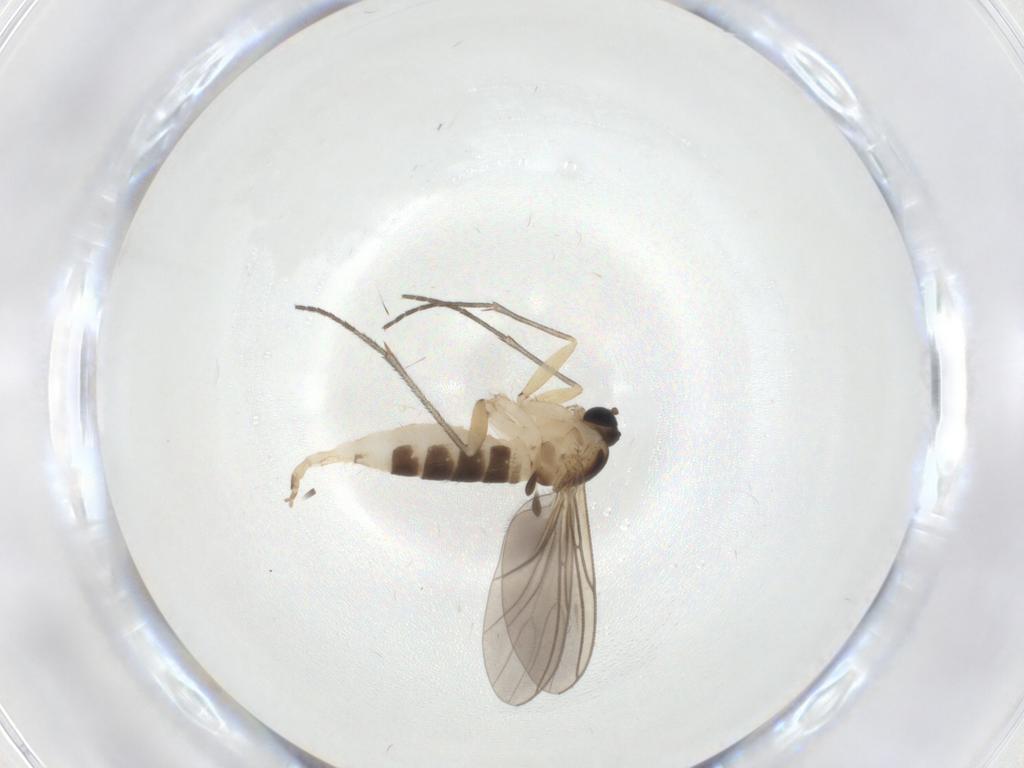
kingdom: Animalia
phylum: Arthropoda
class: Insecta
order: Diptera
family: Sciaridae
